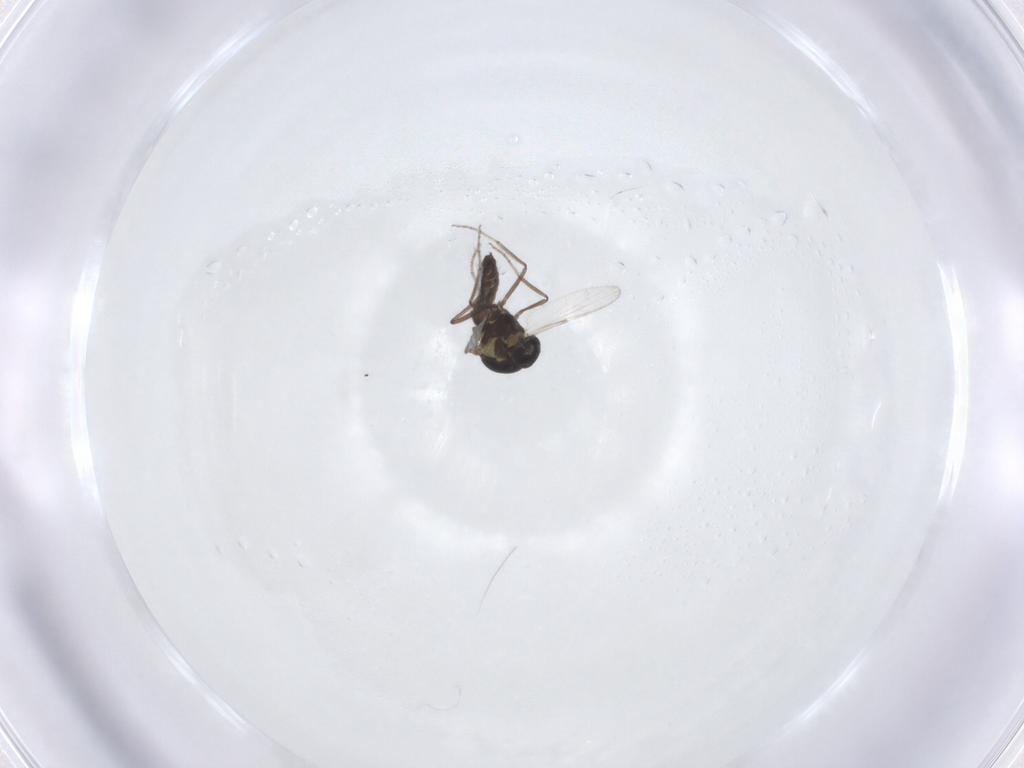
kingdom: Animalia
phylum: Arthropoda
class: Insecta
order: Diptera
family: Ceratopogonidae
